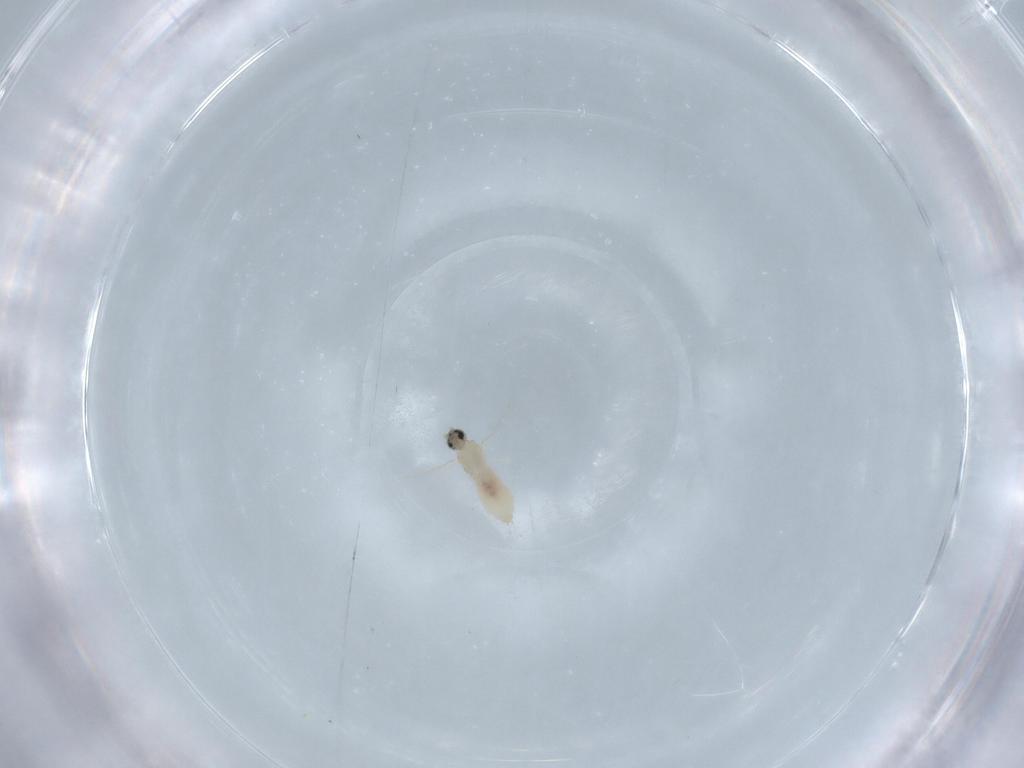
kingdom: Animalia
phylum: Arthropoda
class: Insecta
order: Diptera
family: Cecidomyiidae
